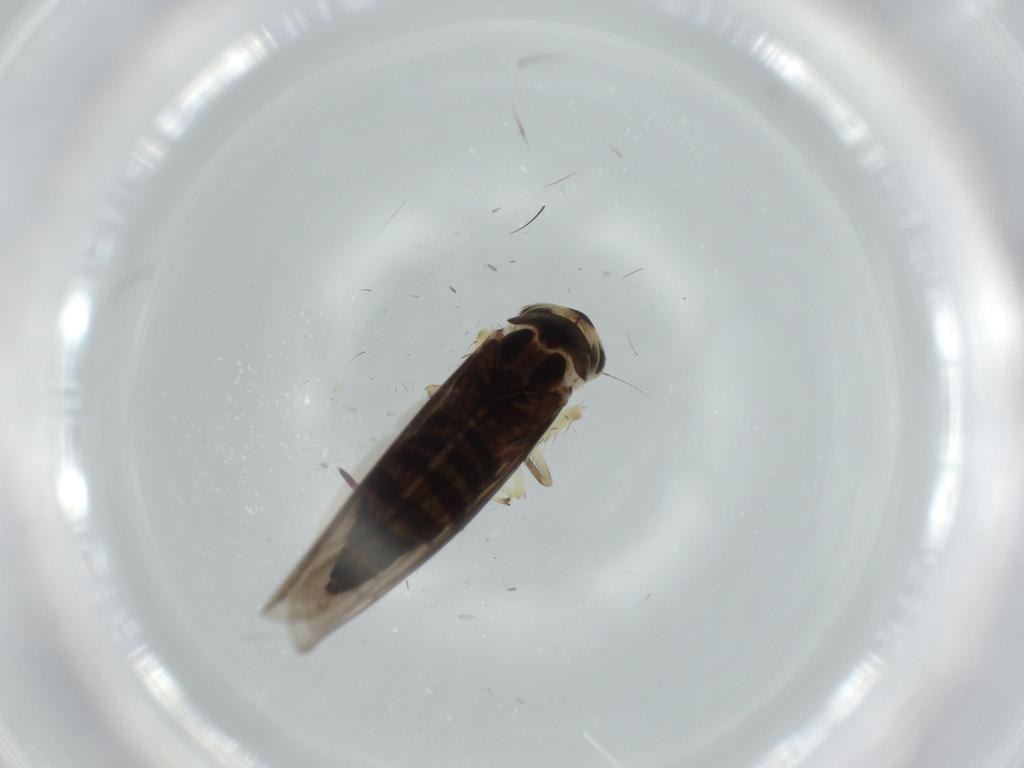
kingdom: Animalia
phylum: Arthropoda
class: Insecta
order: Hemiptera
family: Cicadellidae
